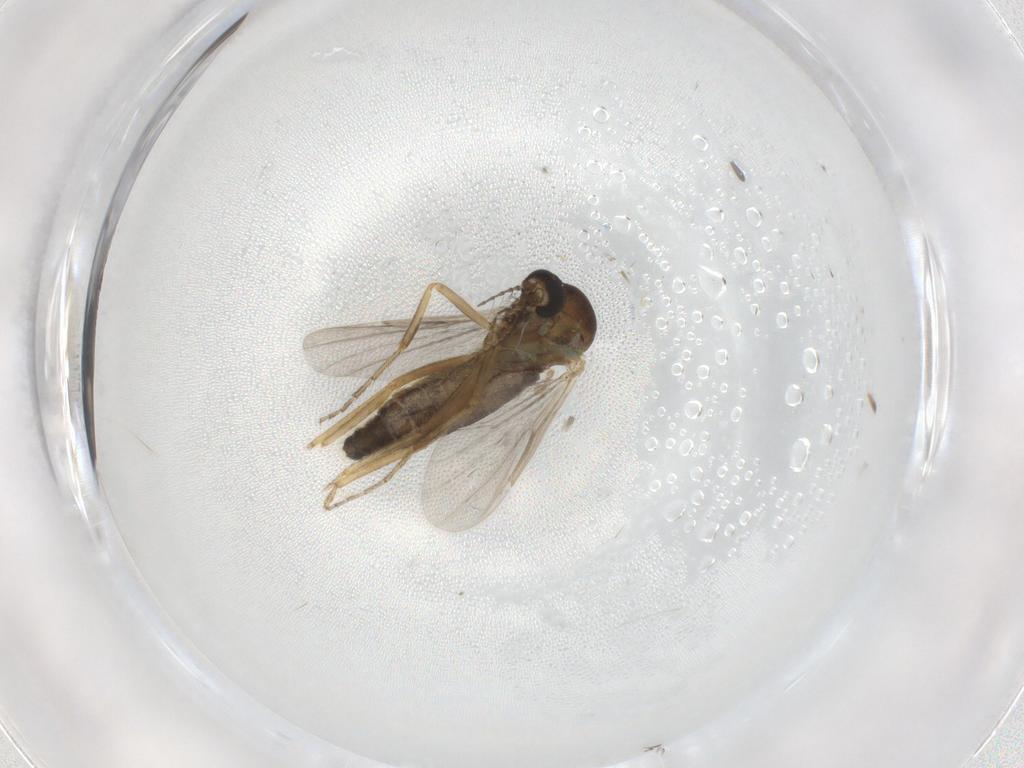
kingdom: Animalia
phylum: Arthropoda
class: Insecta
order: Diptera
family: Ceratopogonidae
